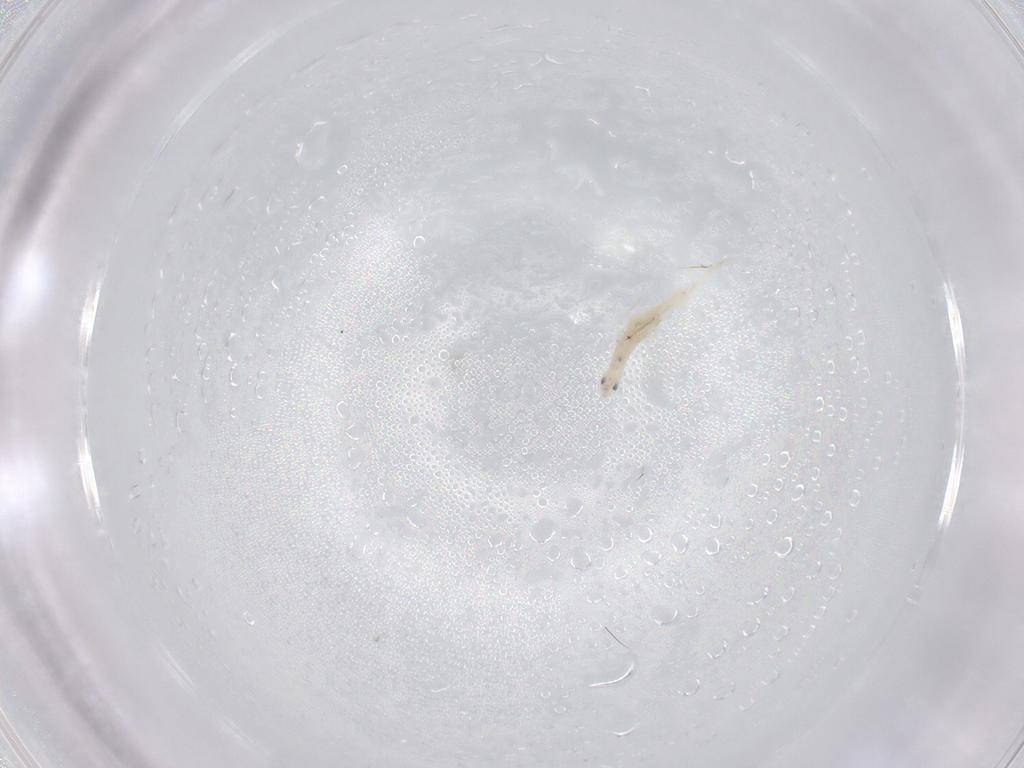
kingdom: Animalia
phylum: Arthropoda
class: Collembola
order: Entomobryomorpha
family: Entomobryidae
